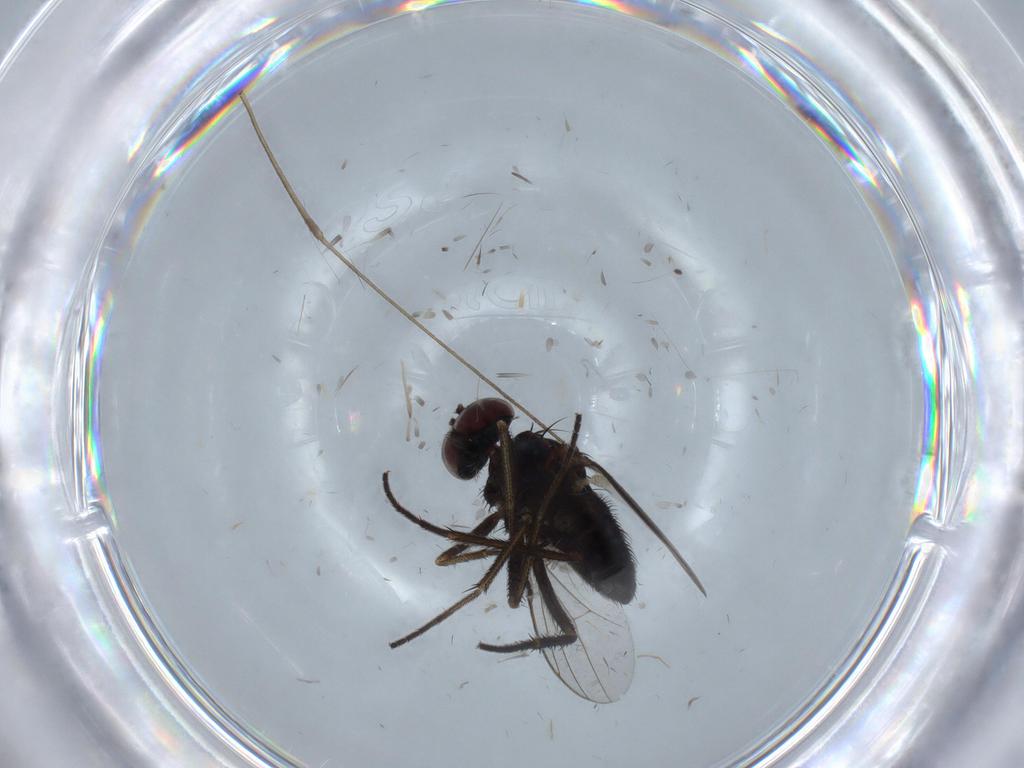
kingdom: Animalia
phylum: Arthropoda
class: Insecta
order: Diptera
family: Dolichopodidae
